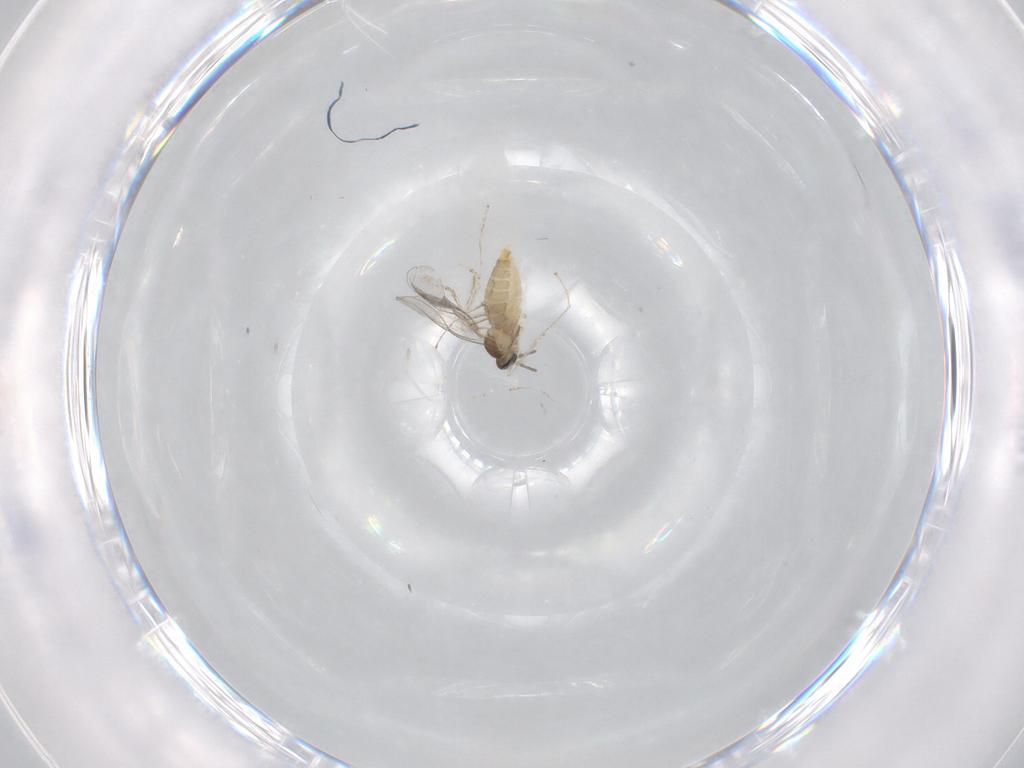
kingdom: Animalia
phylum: Arthropoda
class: Insecta
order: Diptera
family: Cecidomyiidae
